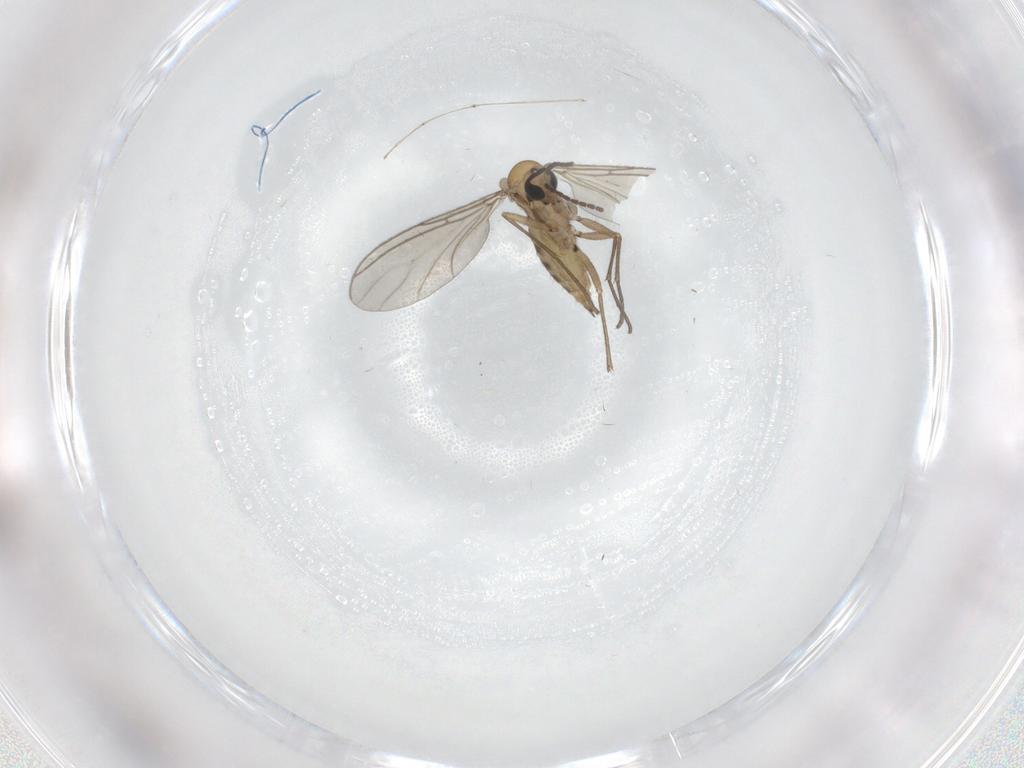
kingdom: Animalia
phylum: Arthropoda
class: Insecta
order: Diptera
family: Sciaridae
